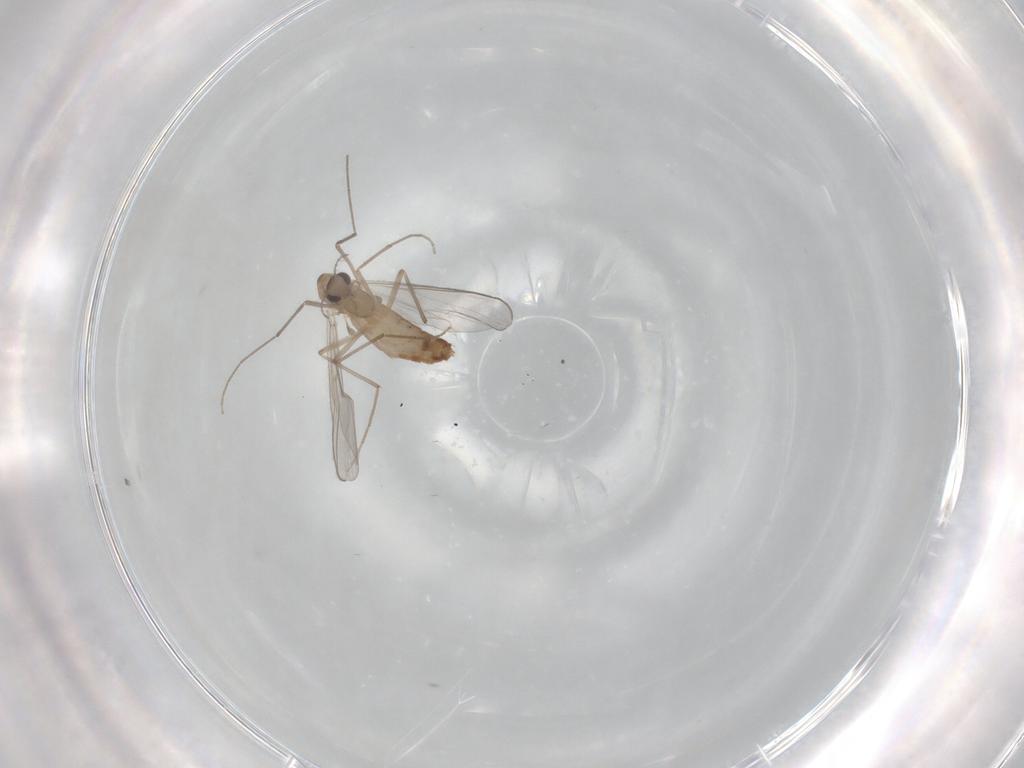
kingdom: Animalia
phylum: Arthropoda
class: Insecta
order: Diptera
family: Chironomidae
